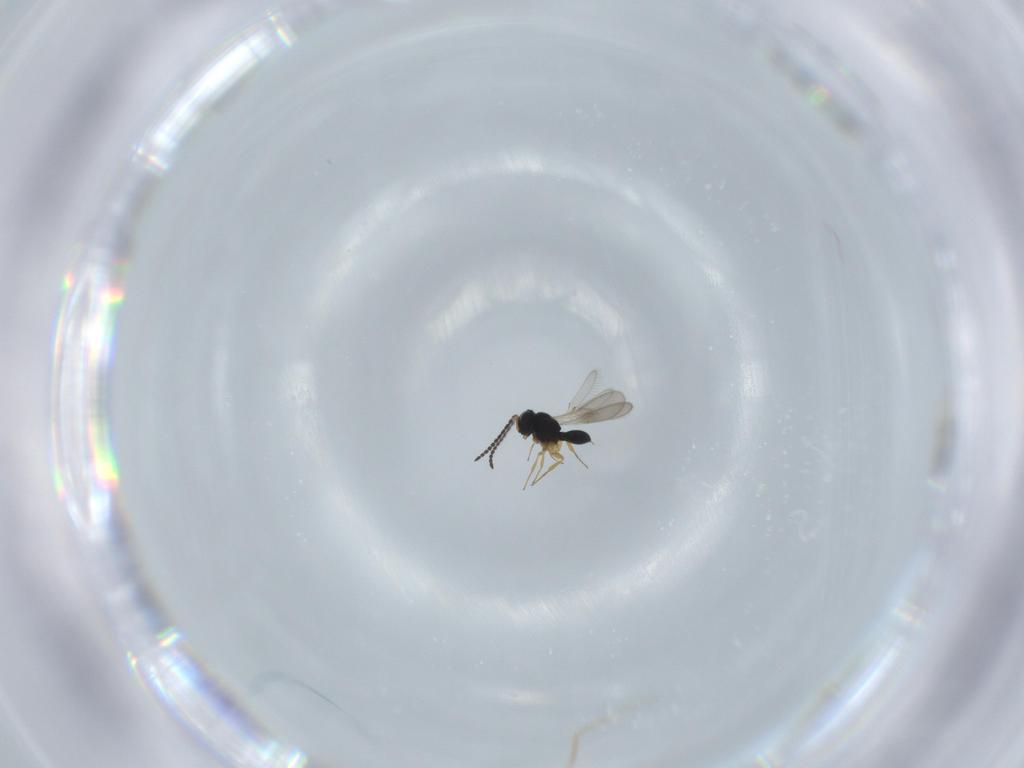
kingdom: Animalia
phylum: Arthropoda
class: Insecta
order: Hymenoptera
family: Scelionidae
